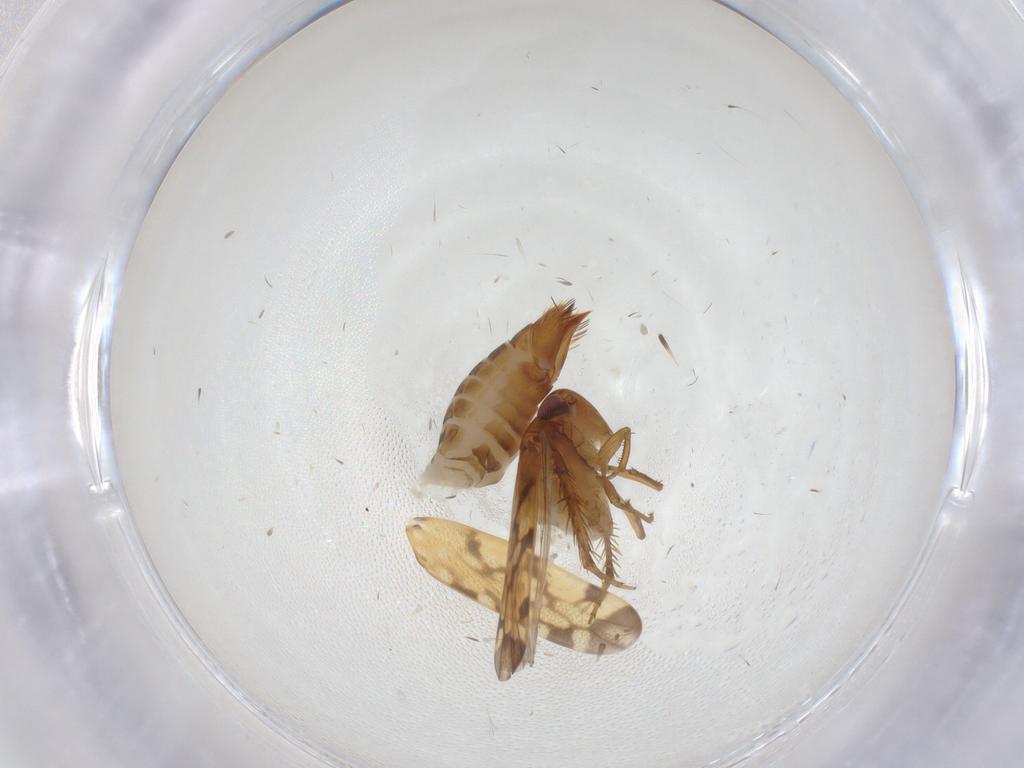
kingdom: Animalia
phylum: Arthropoda
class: Insecta
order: Hemiptera
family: Cicadellidae
